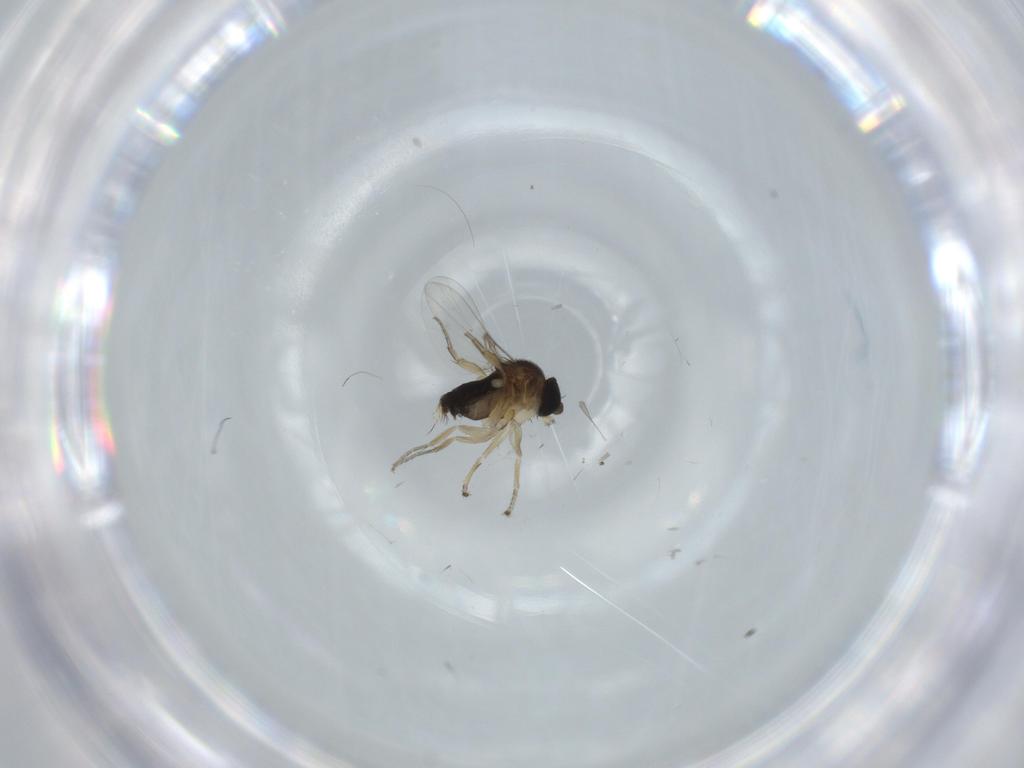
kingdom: Animalia
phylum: Arthropoda
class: Insecta
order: Diptera
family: Phoridae
